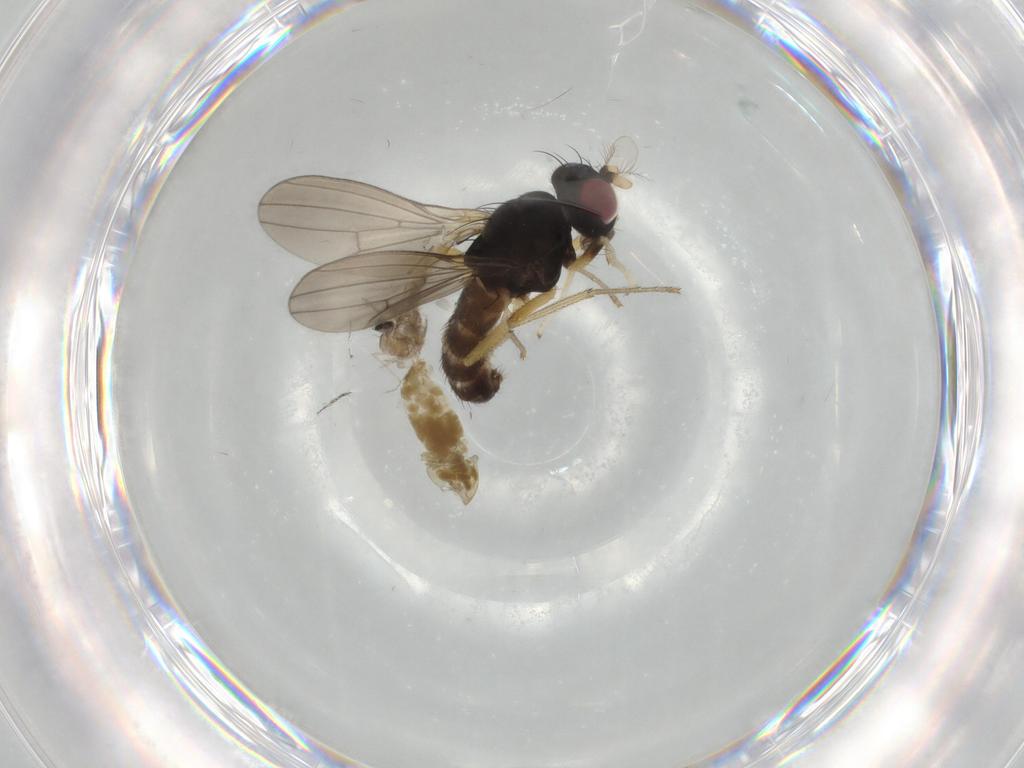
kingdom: Animalia
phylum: Arthropoda
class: Insecta
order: Diptera
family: Lauxaniidae
